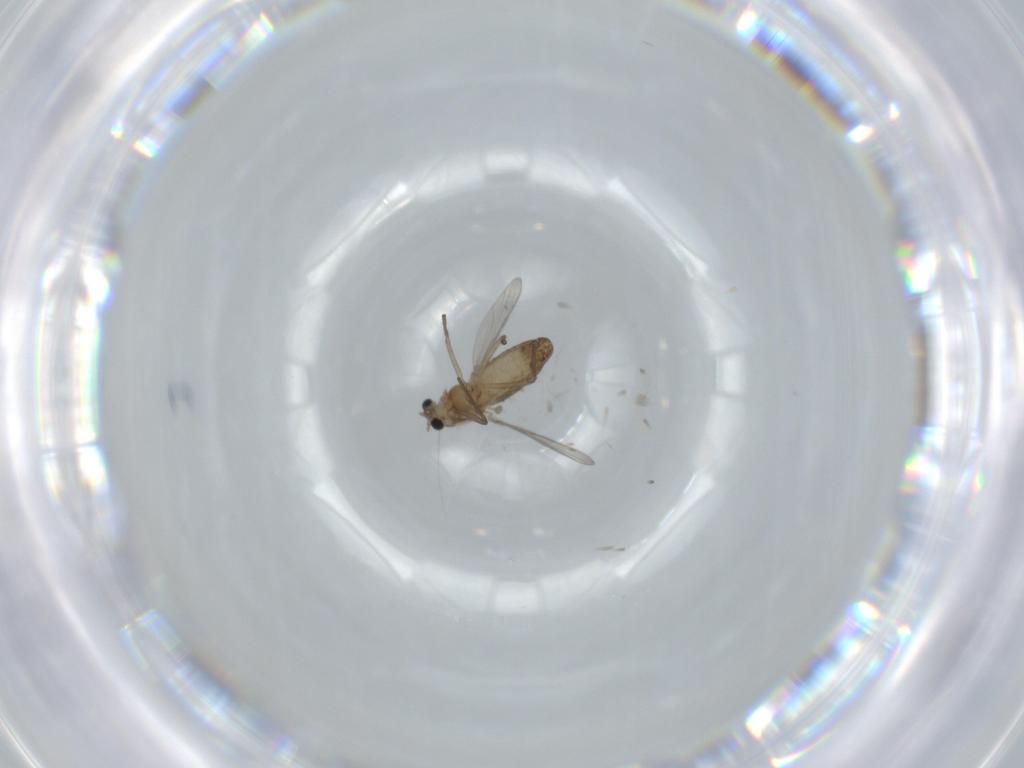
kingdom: Animalia
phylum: Arthropoda
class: Insecta
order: Diptera
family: Chironomidae
